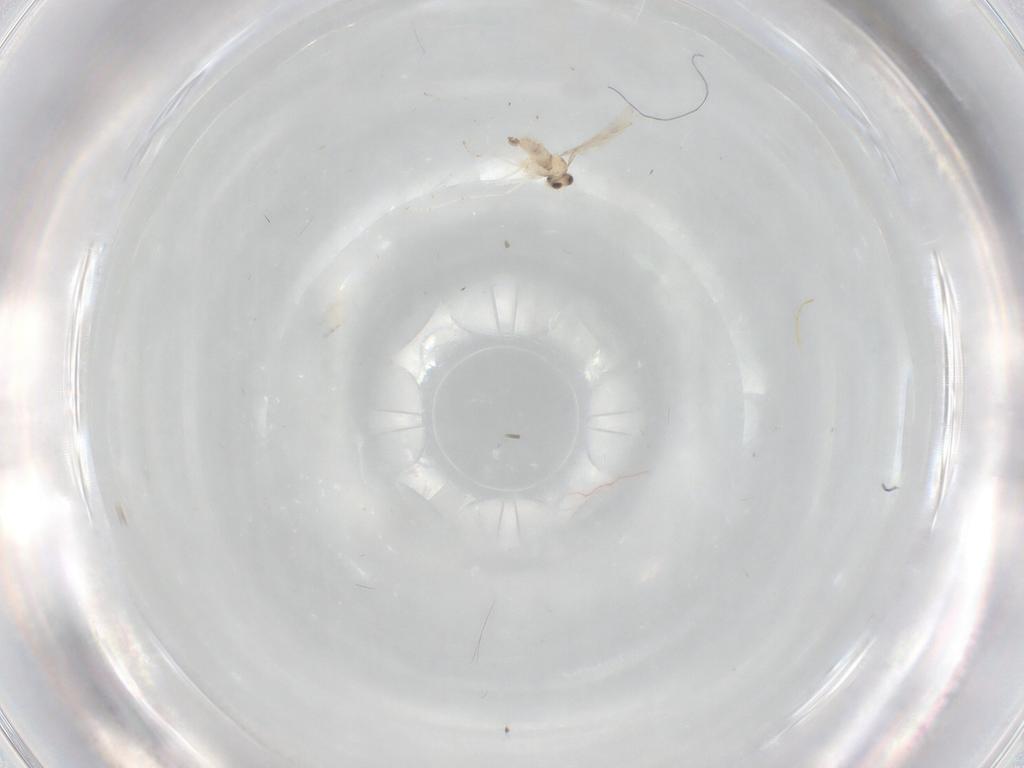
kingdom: Animalia
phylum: Arthropoda
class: Insecta
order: Diptera
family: Cecidomyiidae
